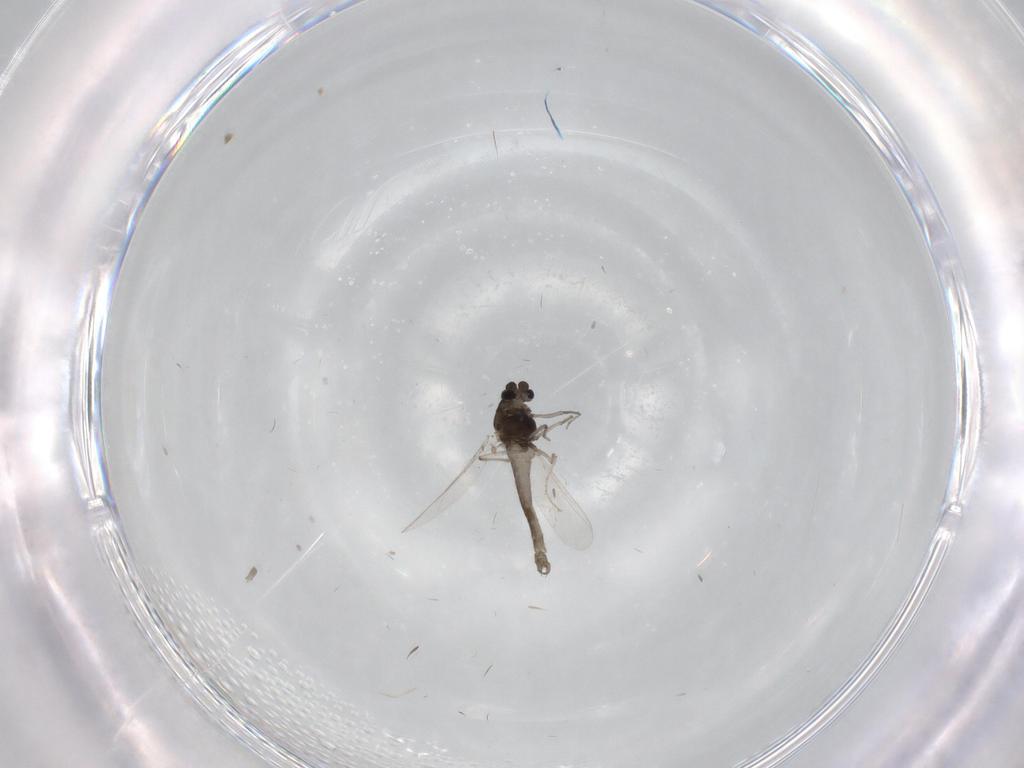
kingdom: Animalia
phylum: Arthropoda
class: Insecta
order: Diptera
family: Chironomidae
